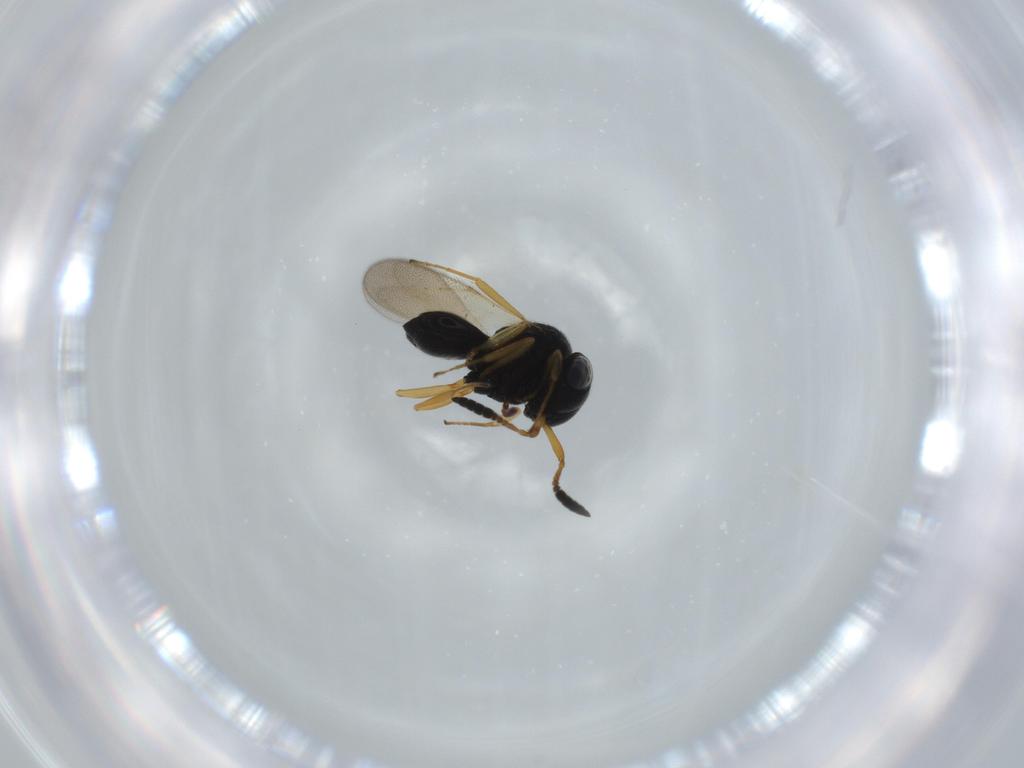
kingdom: Animalia
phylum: Arthropoda
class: Insecta
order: Hymenoptera
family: Scelionidae
